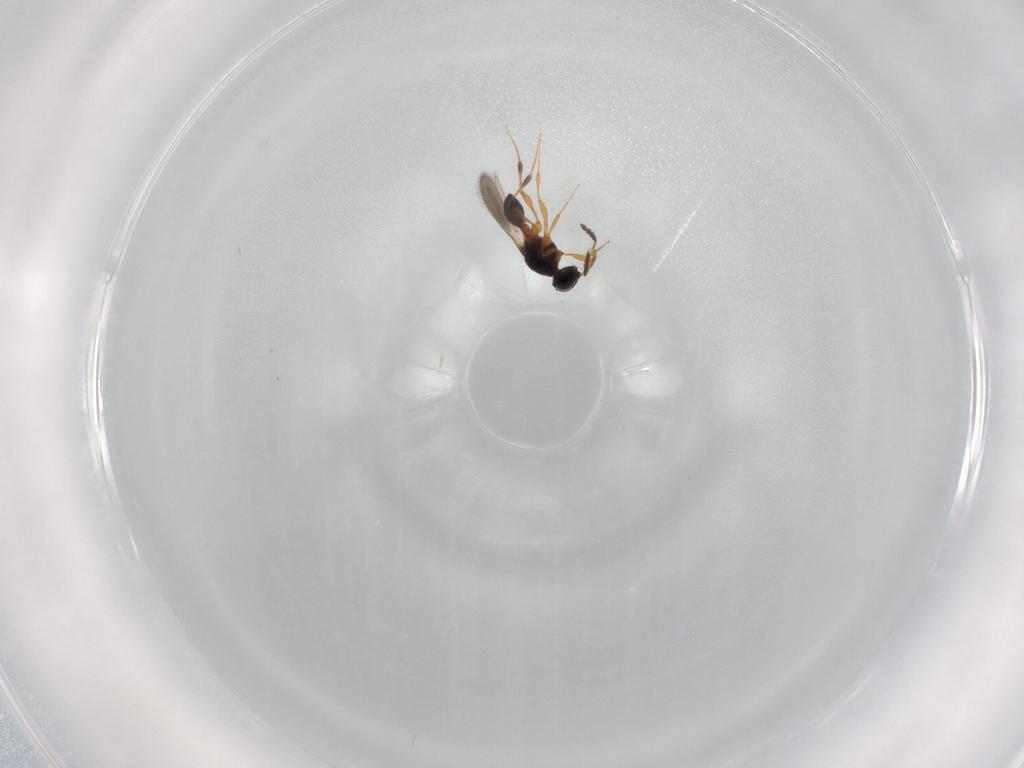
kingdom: Animalia
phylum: Arthropoda
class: Insecta
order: Hymenoptera
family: Platygastridae
